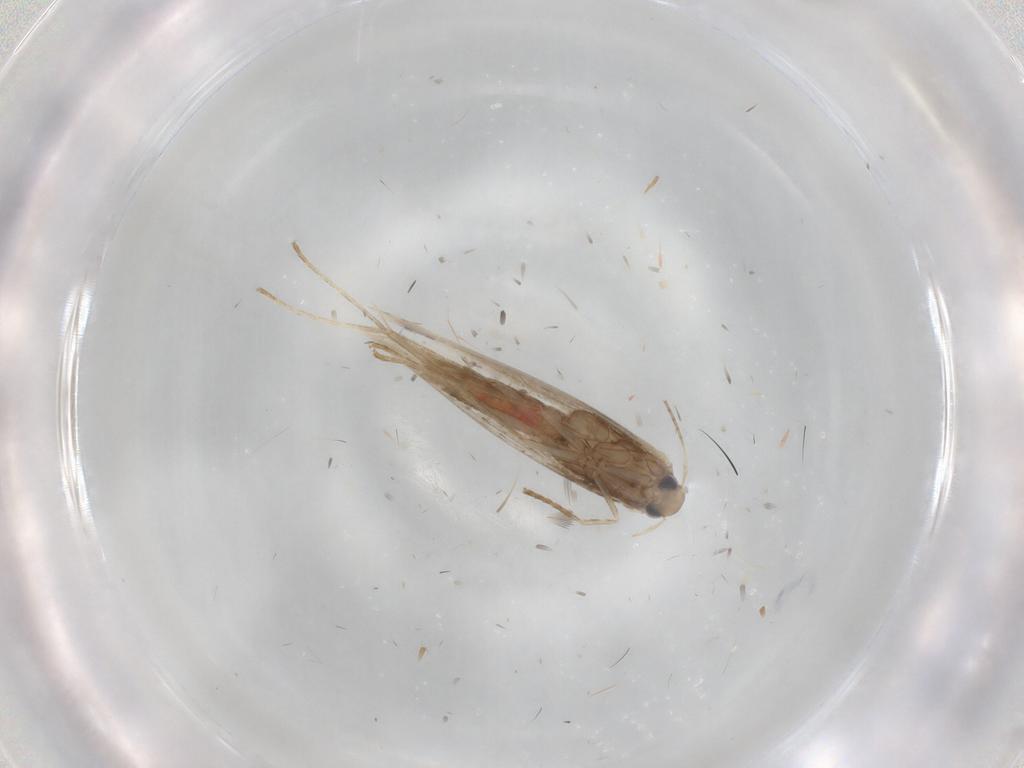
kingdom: Animalia
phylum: Arthropoda
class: Insecta
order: Lepidoptera
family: Gracillariidae
